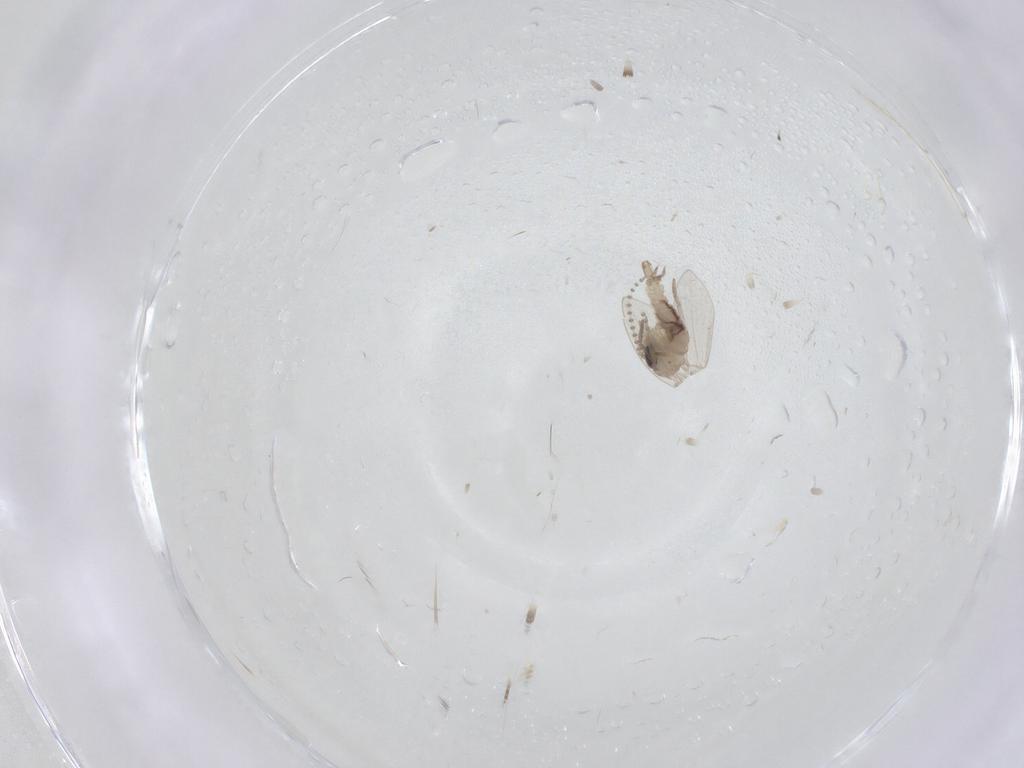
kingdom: Animalia
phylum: Arthropoda
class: Insecta
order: Diptera
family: Psychodidae
